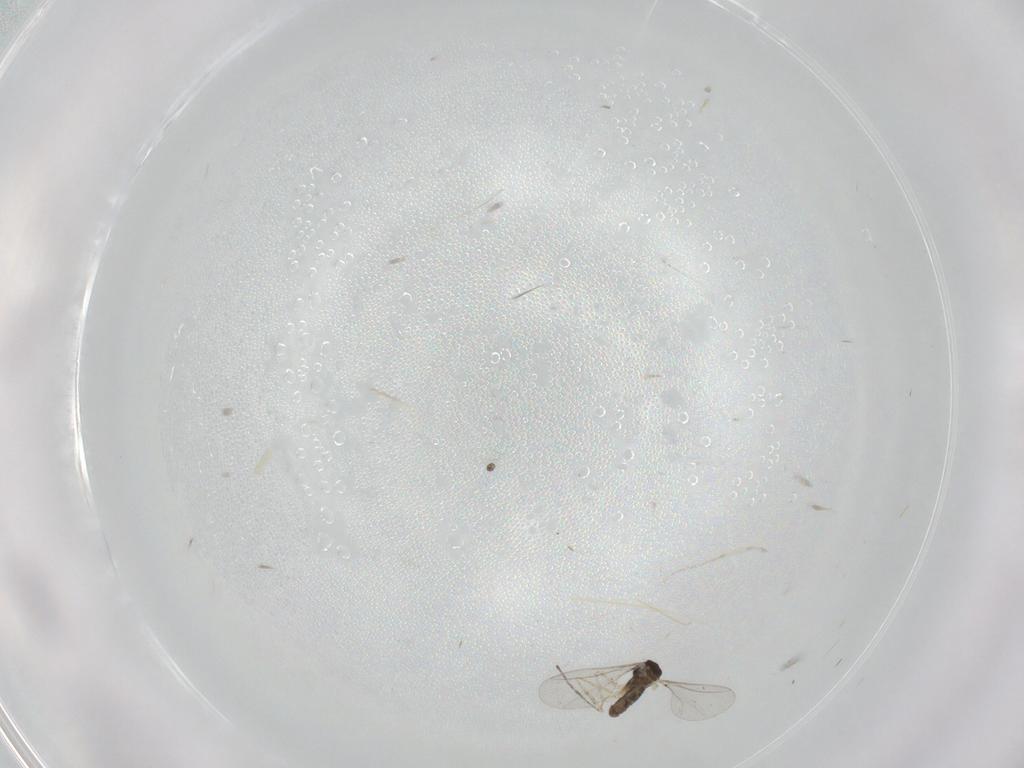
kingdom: Animalia
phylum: Arthropoda
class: Insecta
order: Diptera
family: Cecidomyiidae
